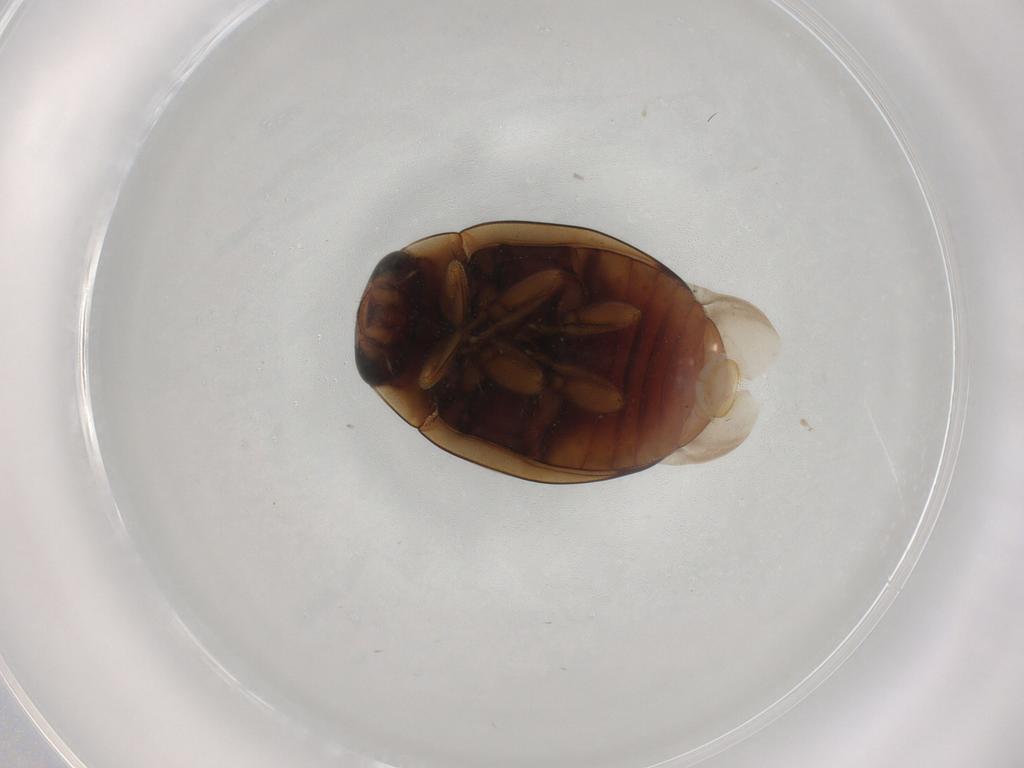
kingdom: Animalia
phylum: Arthropoda
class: Insecta
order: Coleoptera
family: Coccinellidae
